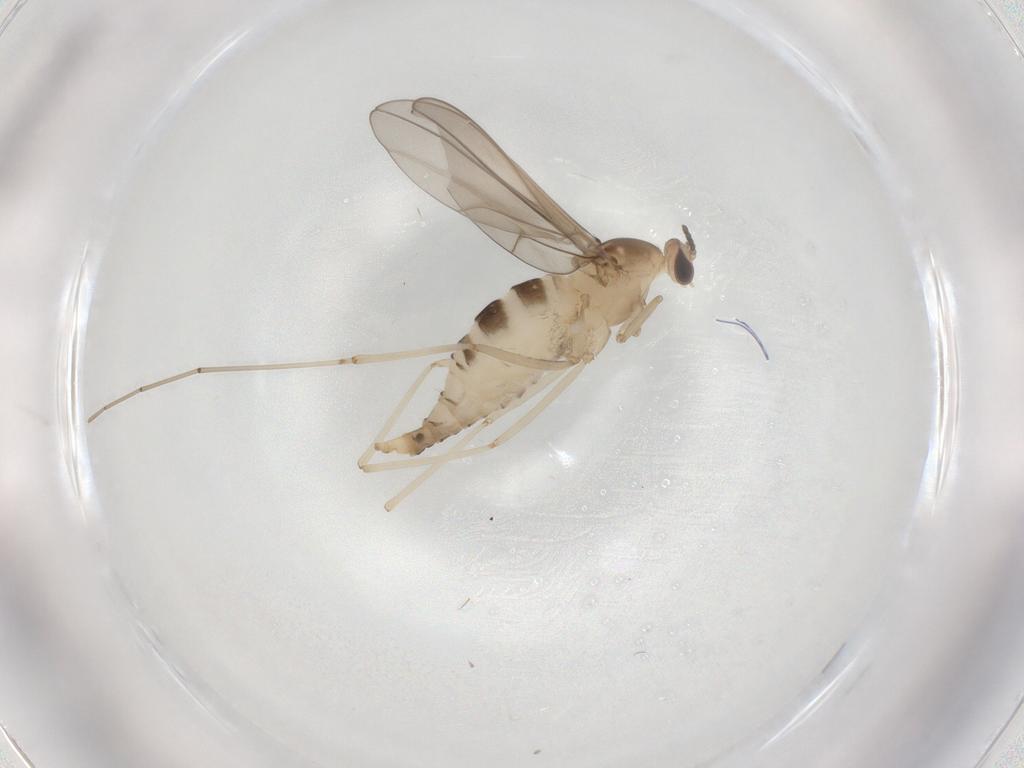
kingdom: Animalia
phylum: Arthropoda
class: Insecta
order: Diptera
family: Cecidomyiidae
